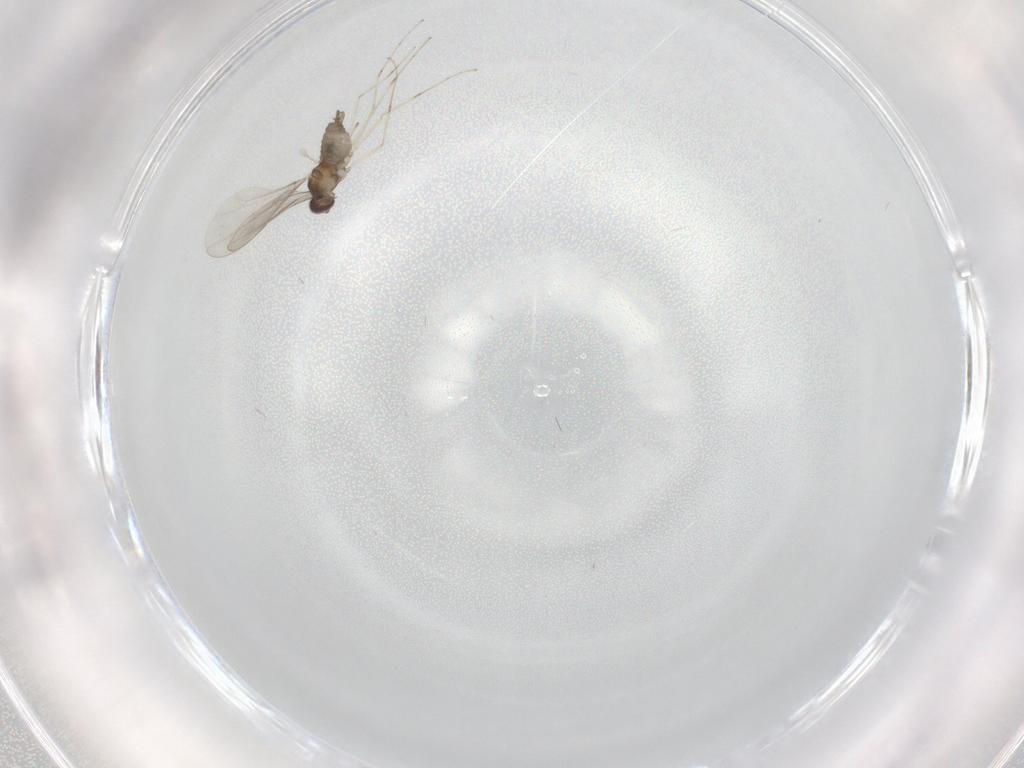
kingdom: Animalia
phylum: Arthropoda
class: Insecta
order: Diptera
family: Cecidomyiidae
